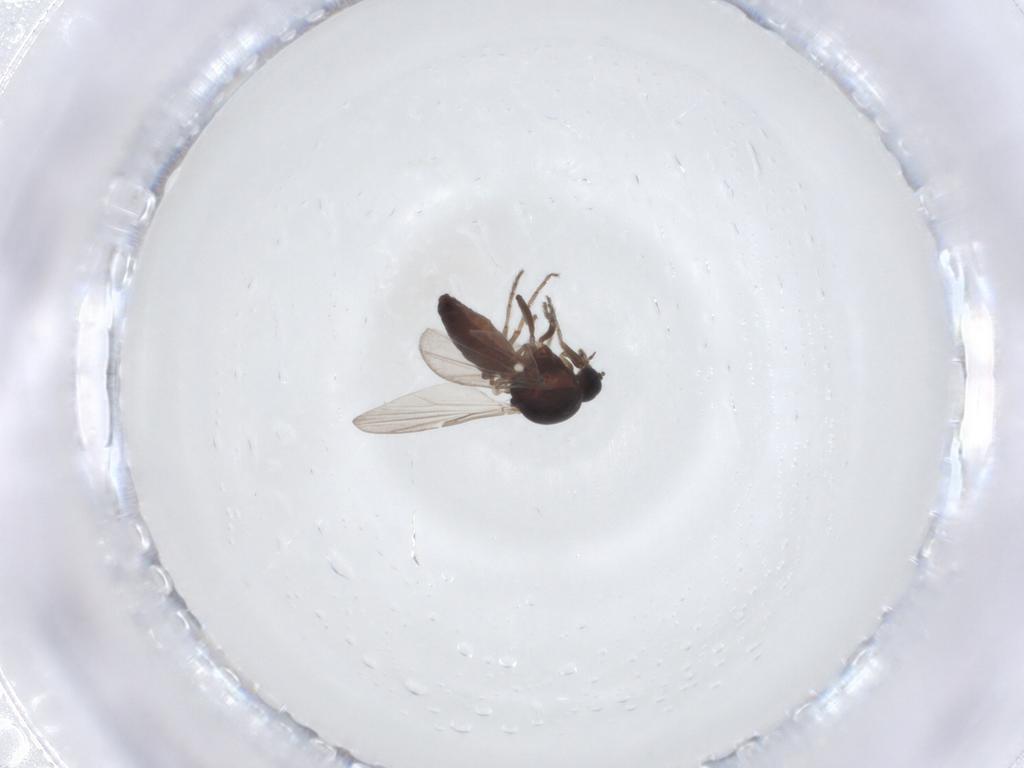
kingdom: Animalia
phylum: Arthropoda
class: Insecta
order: Diptera
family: Ceratopogonidae
